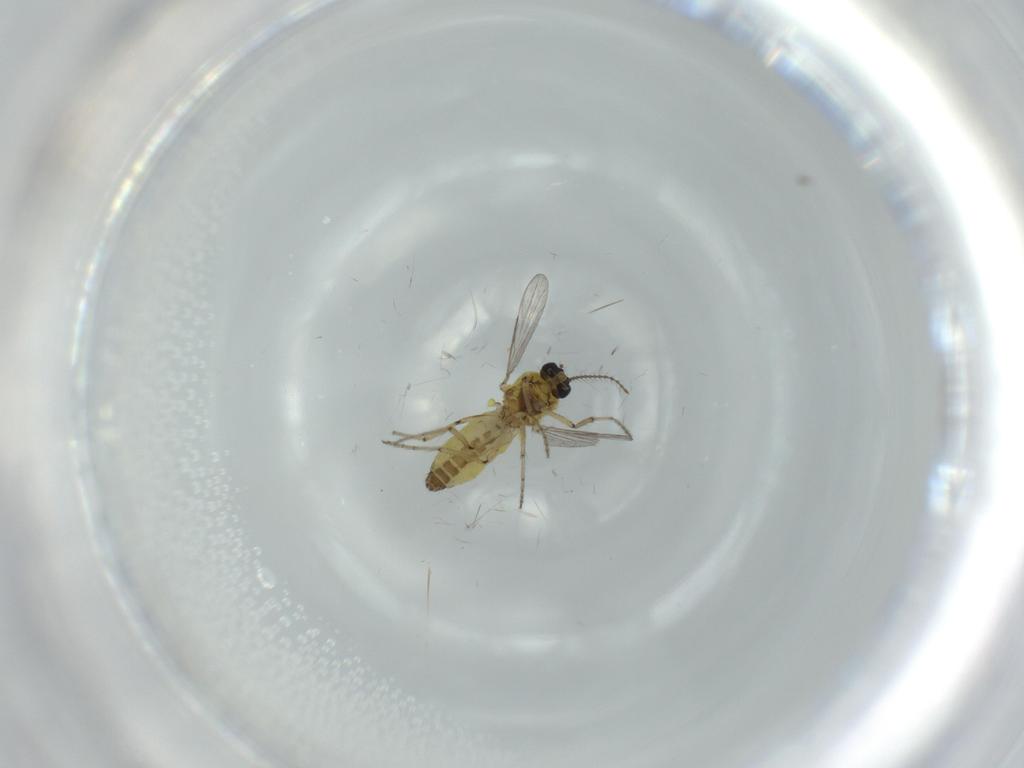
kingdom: Animalia
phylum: Arthropoda
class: Insecta
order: Diptera
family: Ceratopogonidae
